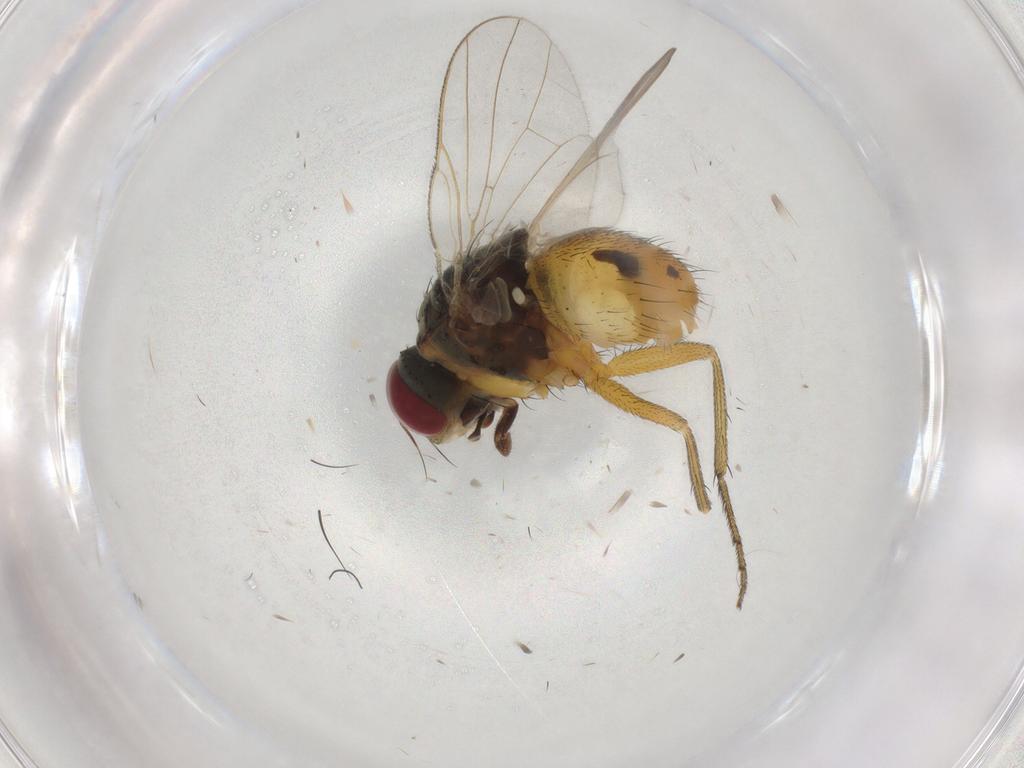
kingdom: Animalia
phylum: Arthropoda
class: Insecta
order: Diptera
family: Muscidae
